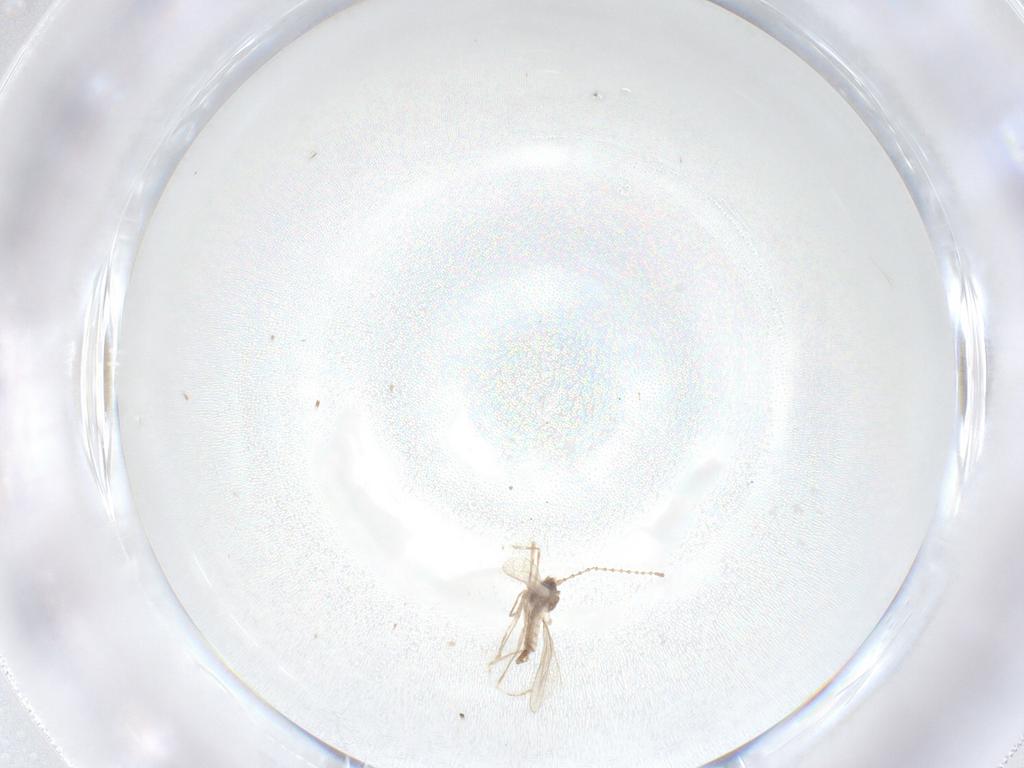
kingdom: Animalia
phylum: Arthropoda
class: Insecta
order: Diptera
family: Cecidomyiidae
